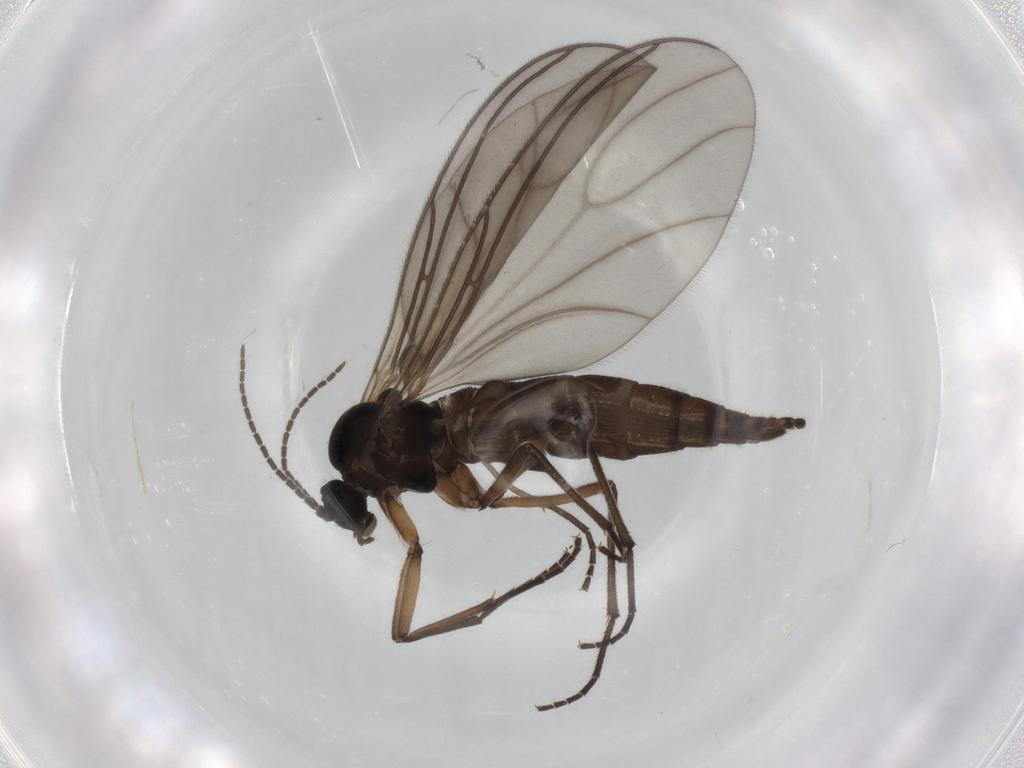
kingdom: Animalia
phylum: Arthropoda
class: Insecta
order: Diptera
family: Sciaridae
